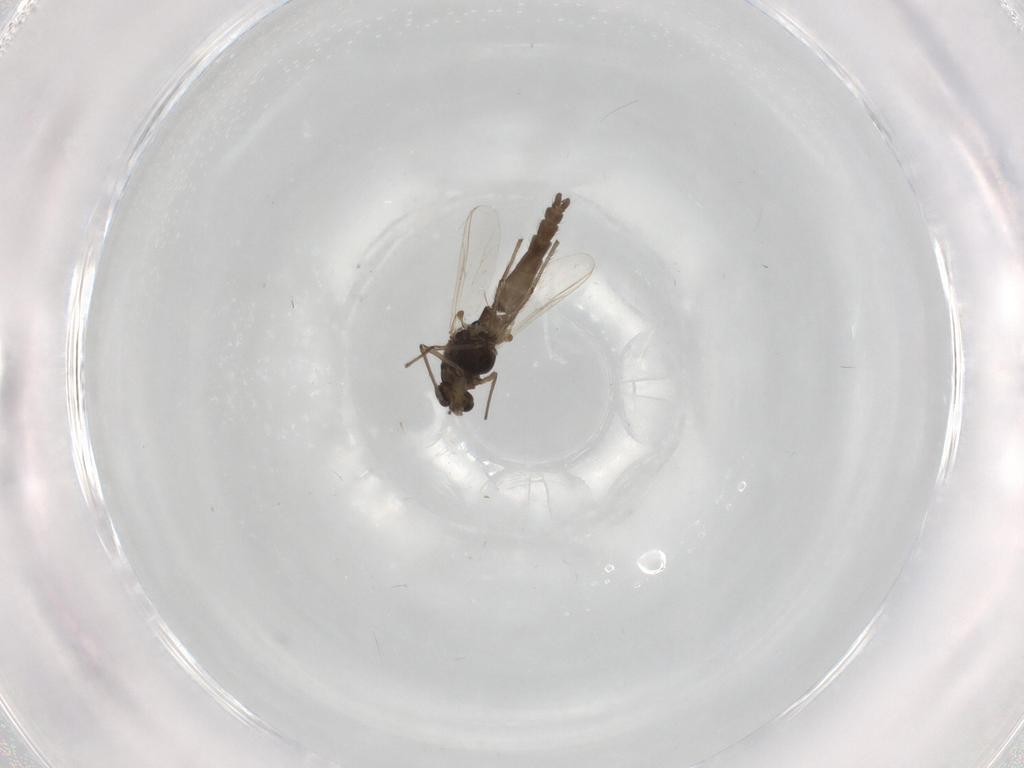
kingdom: Animalia
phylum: Arthropoda
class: Insecta
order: Diptera
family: Chironomidae
